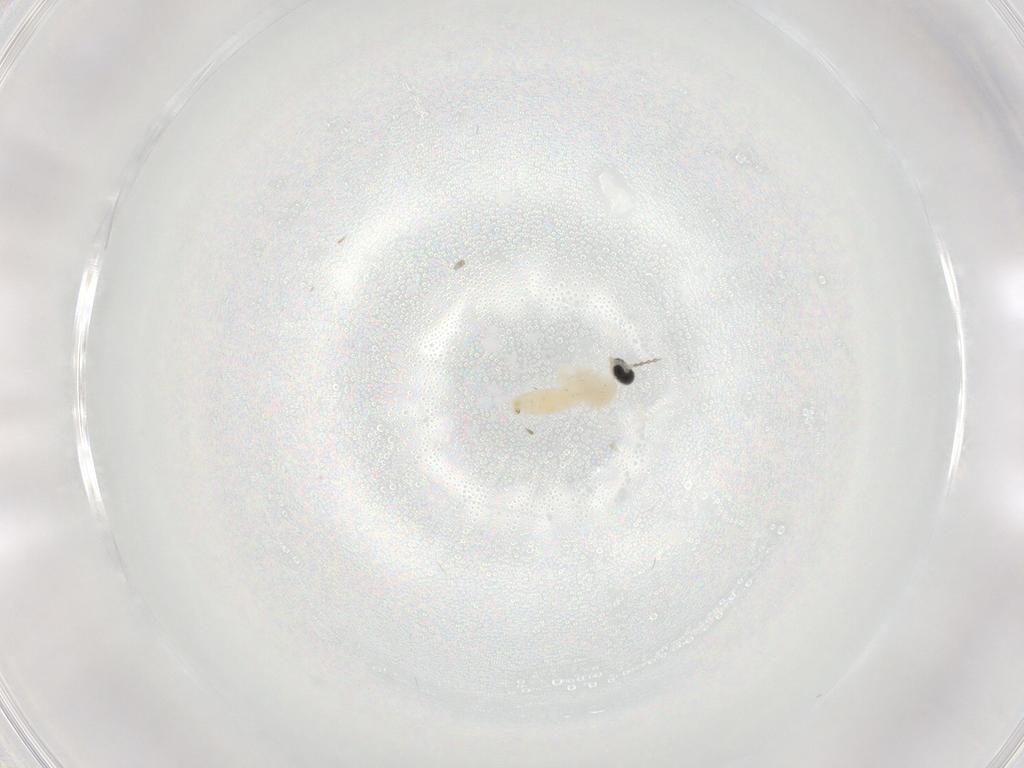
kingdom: Animalia
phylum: Arthropoda
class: Insecta
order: Diptera
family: Cecidomyiidae
